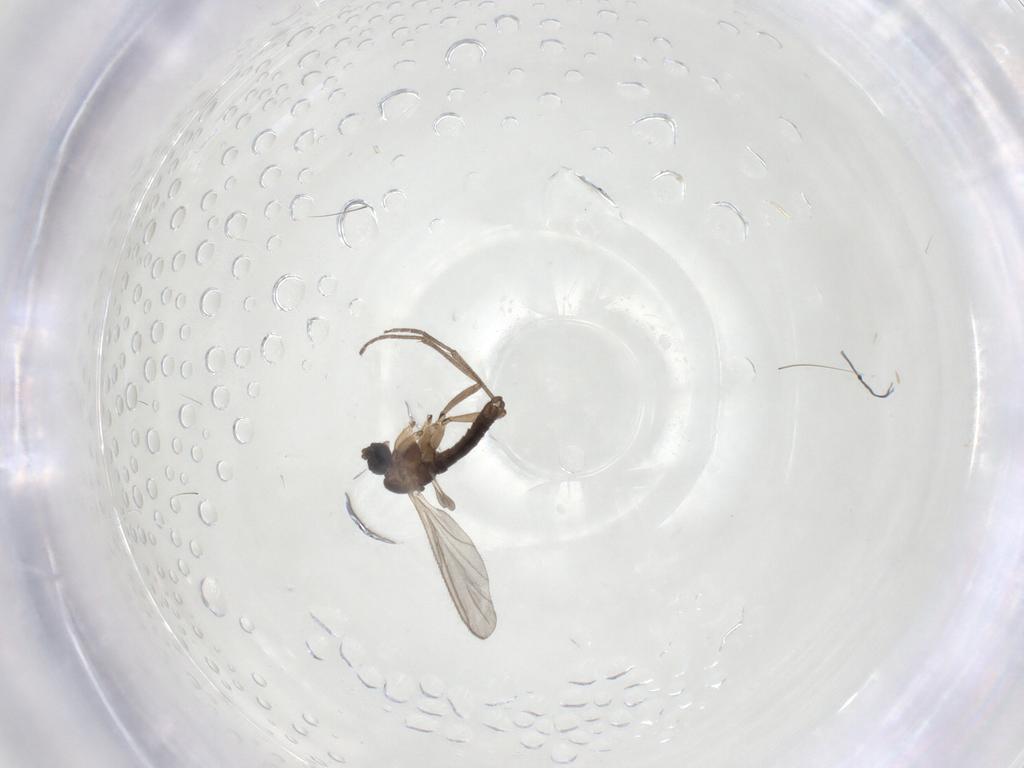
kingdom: Animalia
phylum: Arthropoda
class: Insecta
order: Diptera
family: Sciaridae
